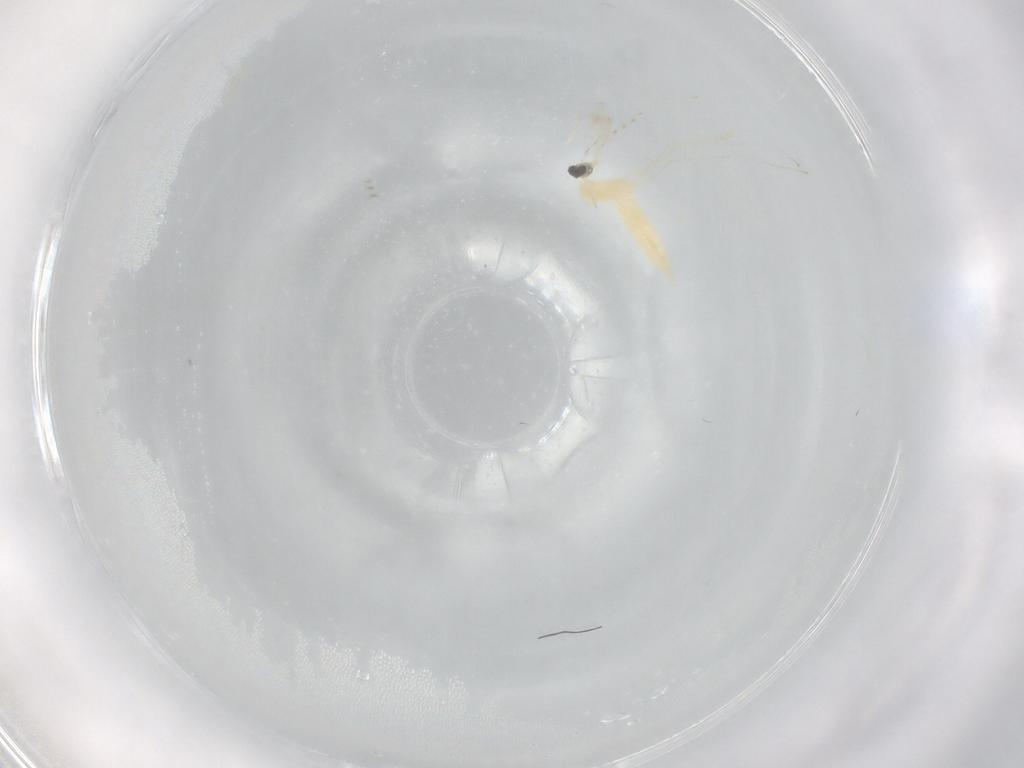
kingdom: Animalia
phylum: Arthropoda
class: Insecta
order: Diptera
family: Cecidomyiidae
